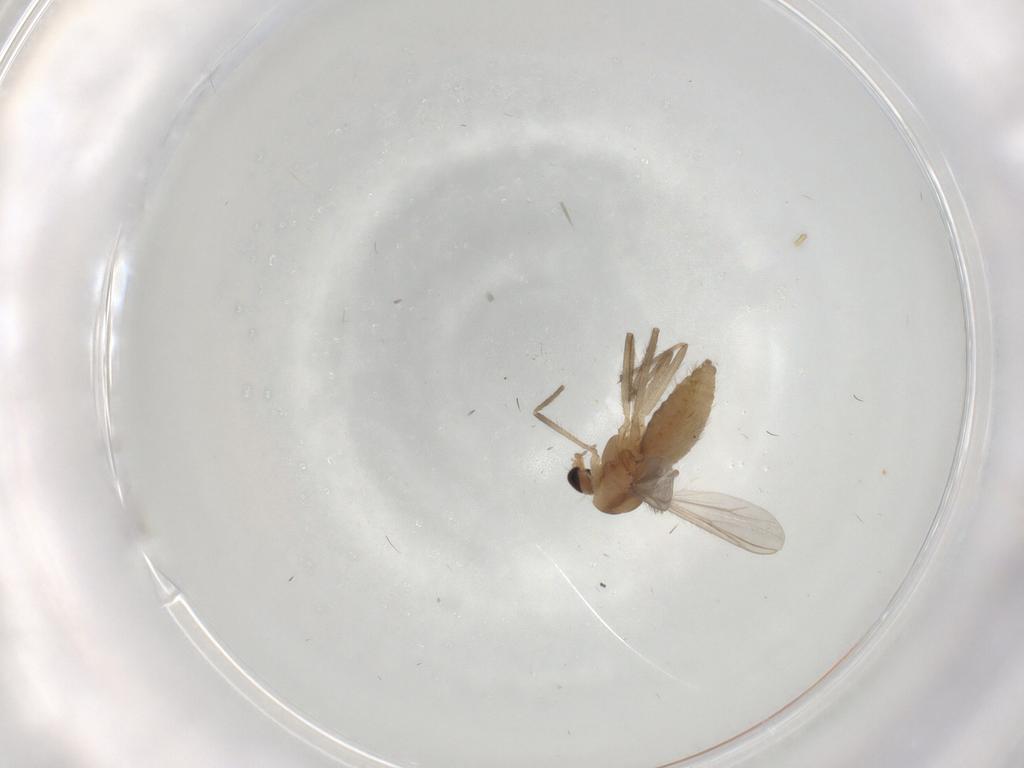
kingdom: Animalia
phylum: Arthropoda
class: Insecta
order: Diptera
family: Chironomidae
